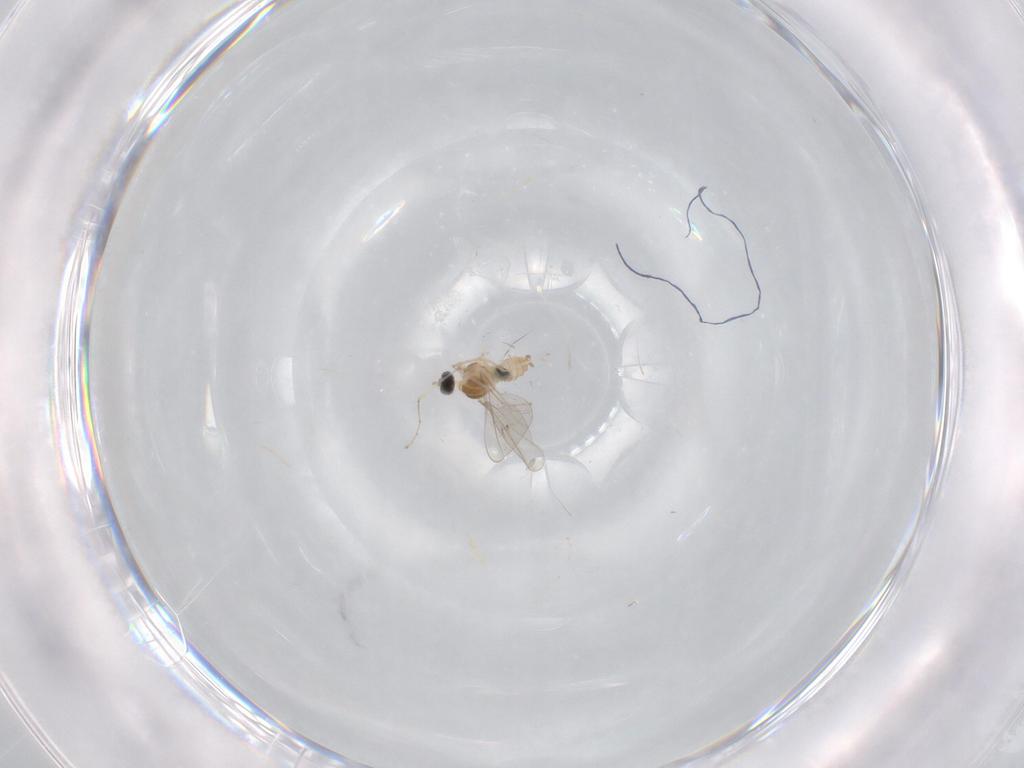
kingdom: Animalia
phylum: Arthropoda
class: Insecta
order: Diptera
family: Cecidomyiidae
